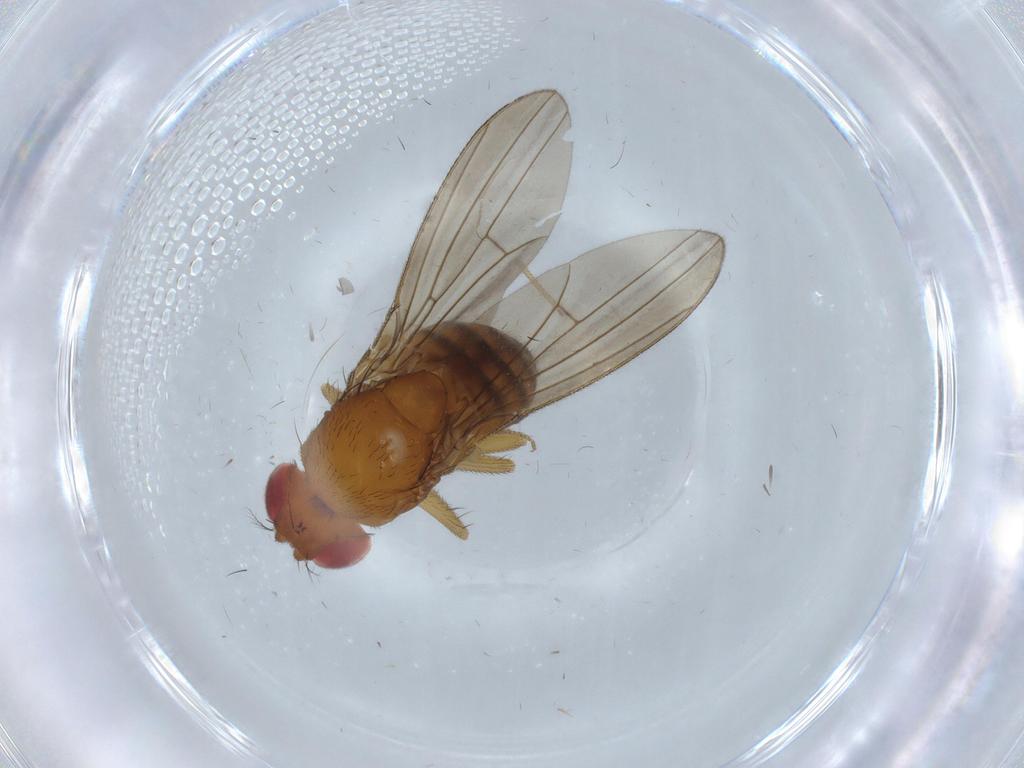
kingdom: Animalia
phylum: Arthropoda
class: Insecta
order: Diptera
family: Drosophilidae
